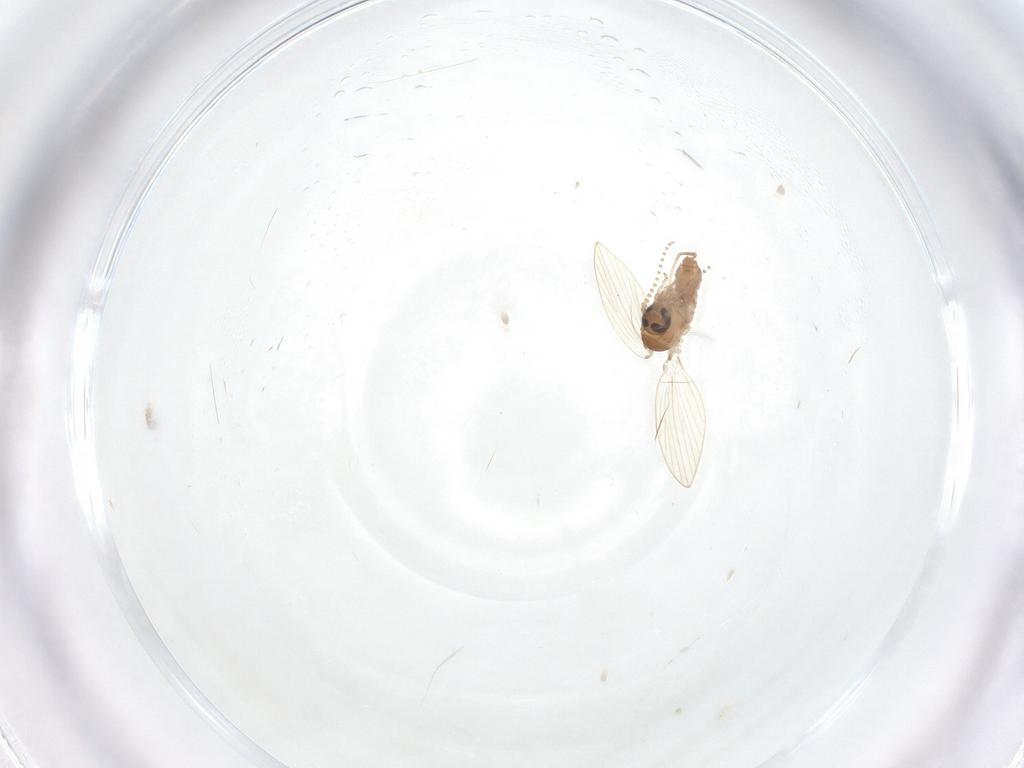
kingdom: Animalia
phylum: Arthropoda
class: Insecta
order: Diptera
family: Psychodidae
